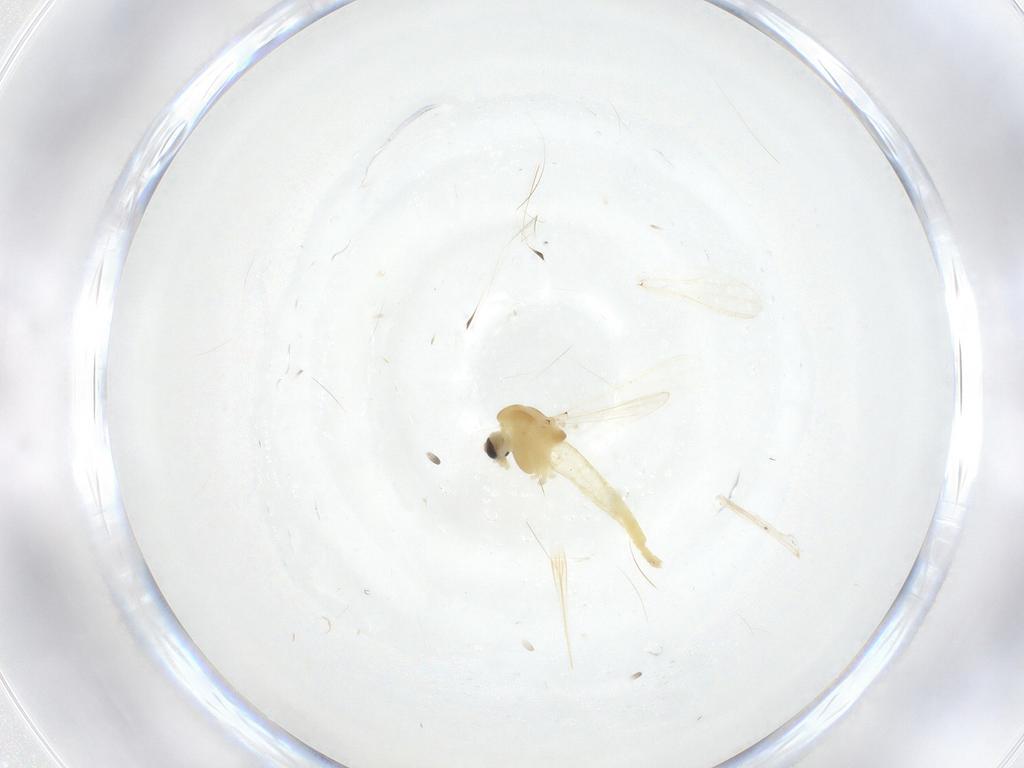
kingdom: Animalia
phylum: Arthropoda
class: Insecta
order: Diptera
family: Chironomidae
